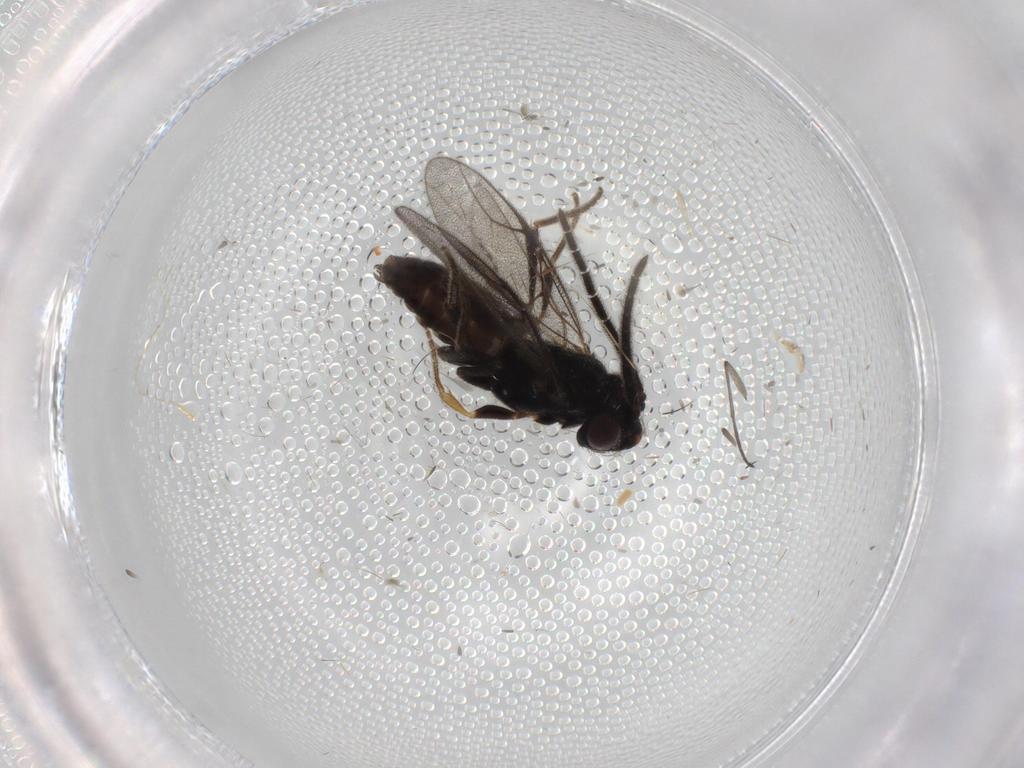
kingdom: Animalia
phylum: Arthropoda
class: Insecta
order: Hymenoptera
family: Dryinidae
